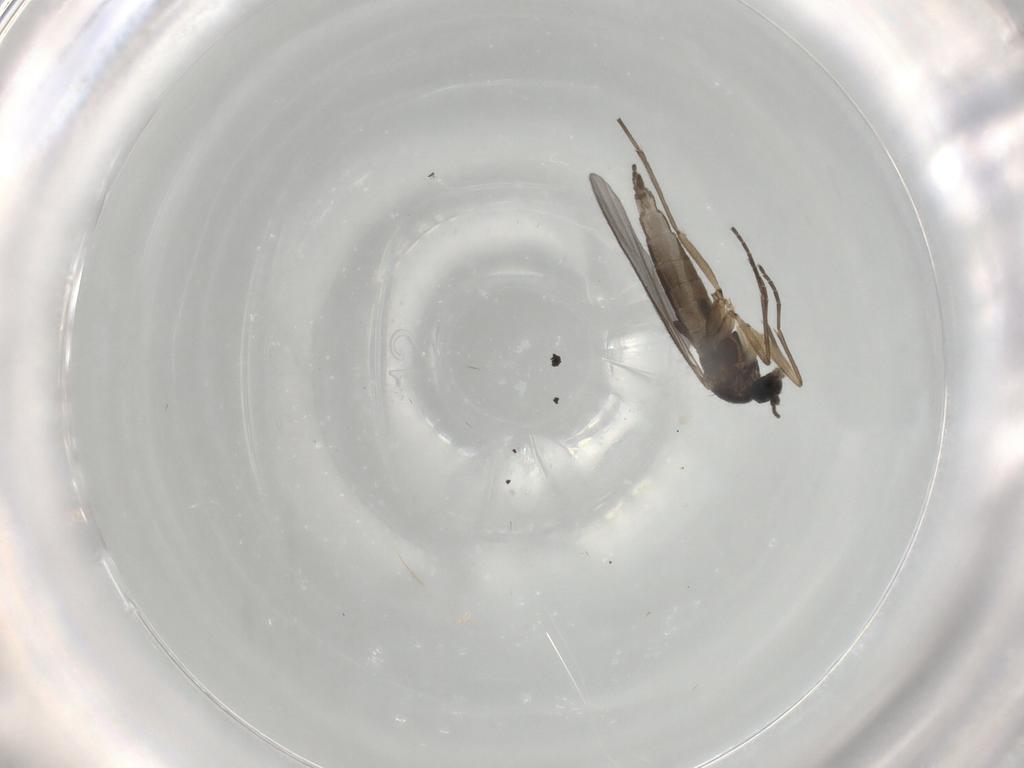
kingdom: Animalia
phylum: Arthropoda
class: Insecta
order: Diptera
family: Sciaridae
